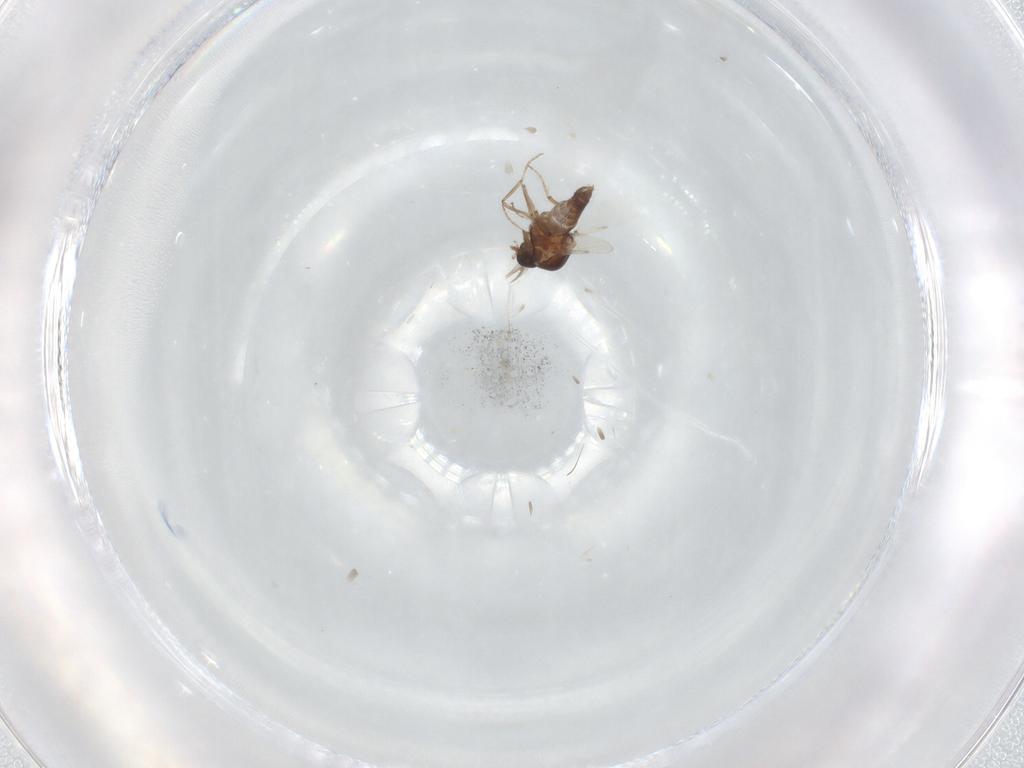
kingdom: Animalia
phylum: Arthropoda
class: Insecta
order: Diptera
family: Ceratopogonidae
